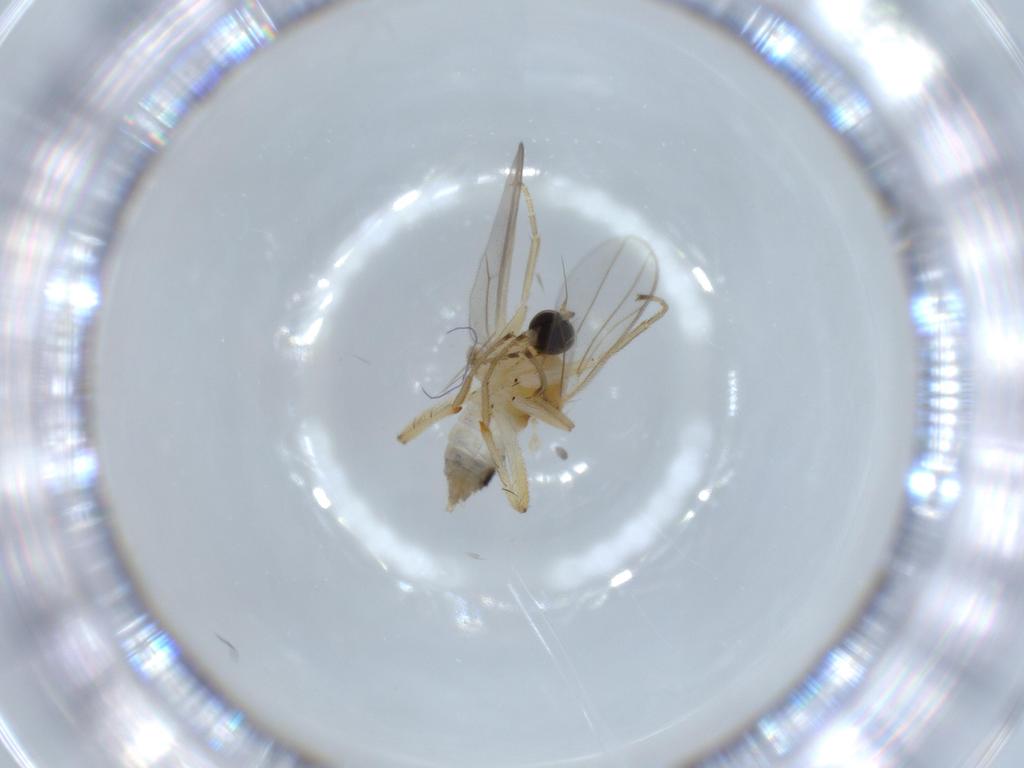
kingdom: Animalia
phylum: Arthropoda
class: Insecta
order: Diptera
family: Hybotidae
